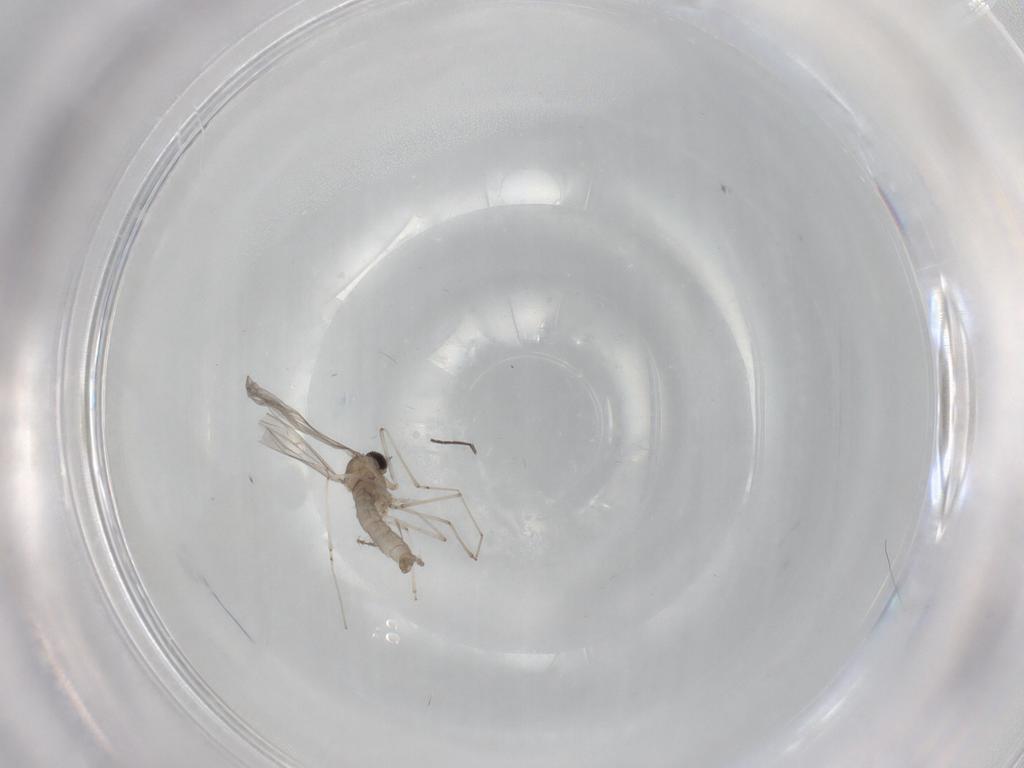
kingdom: Animalia
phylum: Arthropoda
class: Insecta
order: Diptera
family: Cecidomyiidae
